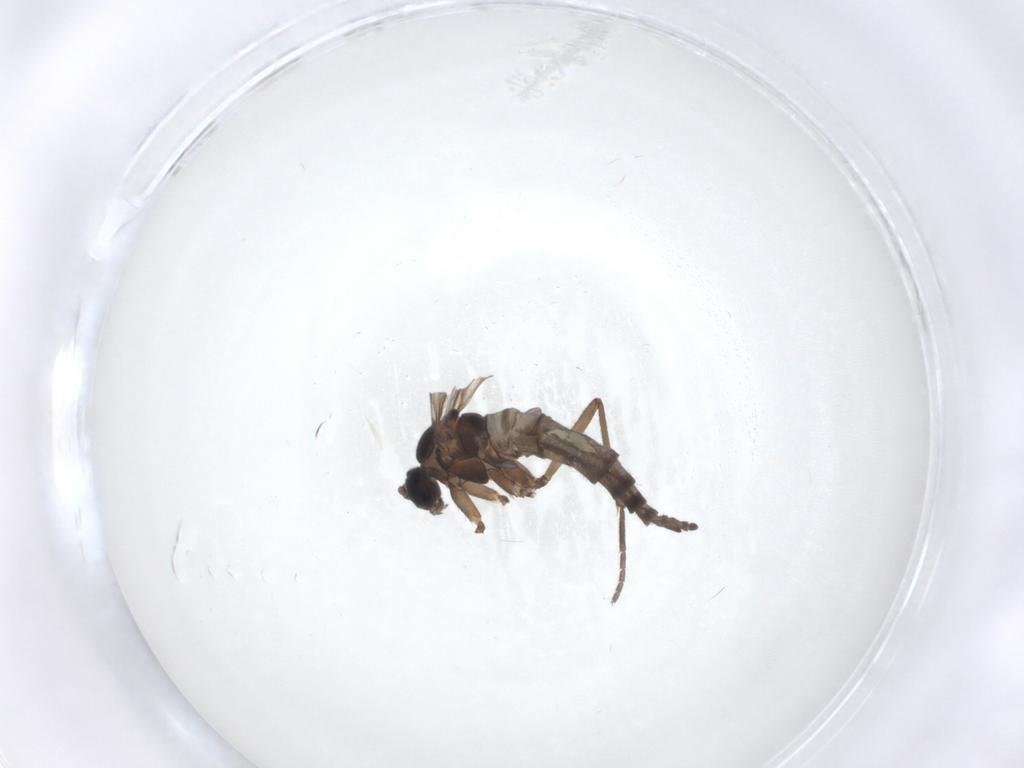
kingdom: Animalia
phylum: Arthropoda
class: Insecta
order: Diptera
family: Sciaridae
